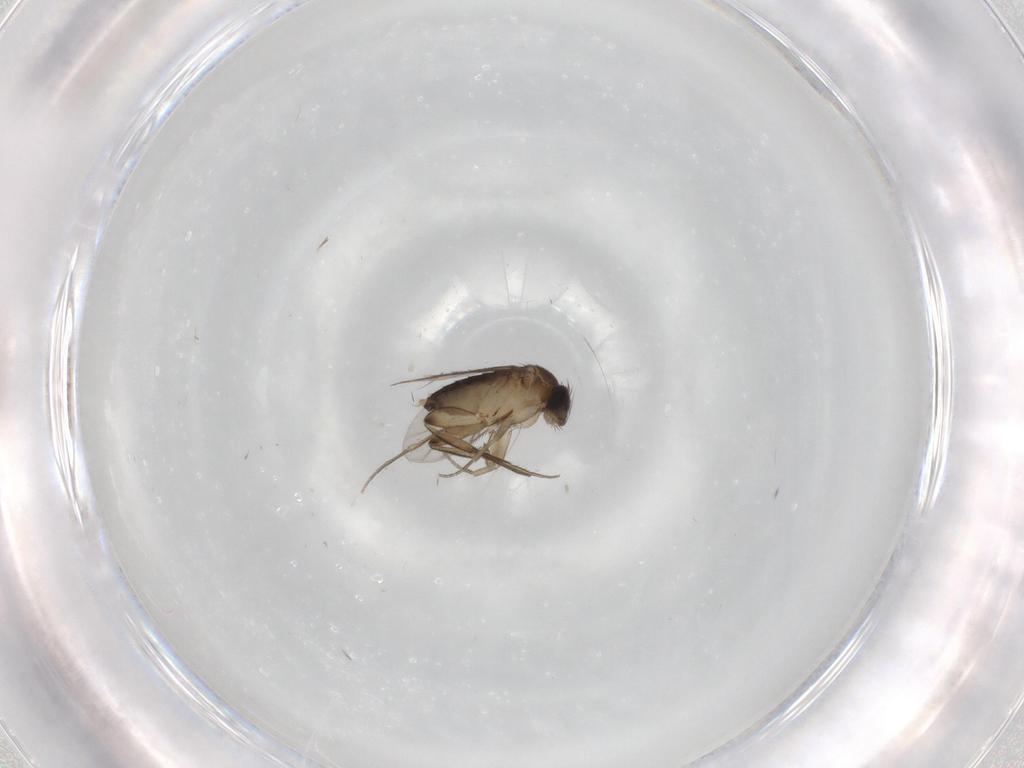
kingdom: Animalia
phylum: Arthropoda
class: Insecta
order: Diptera
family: Phoridae
